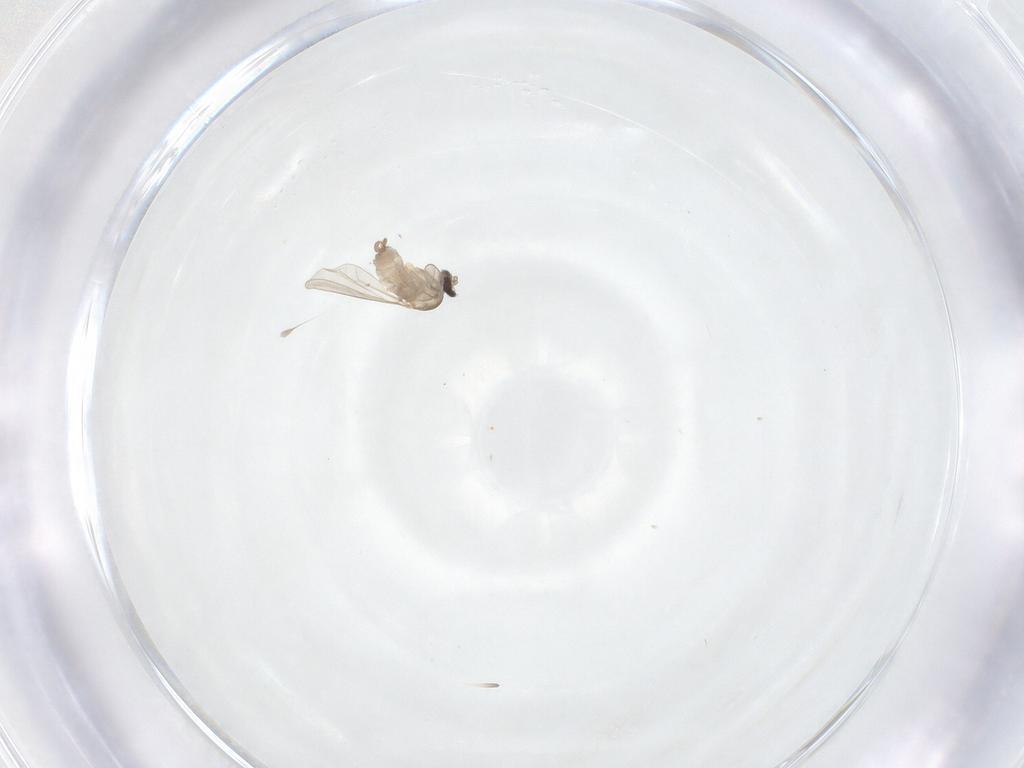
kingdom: Animalia
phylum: Arthropoda
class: Insecta
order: Diptera
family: Cecidomyiidae
